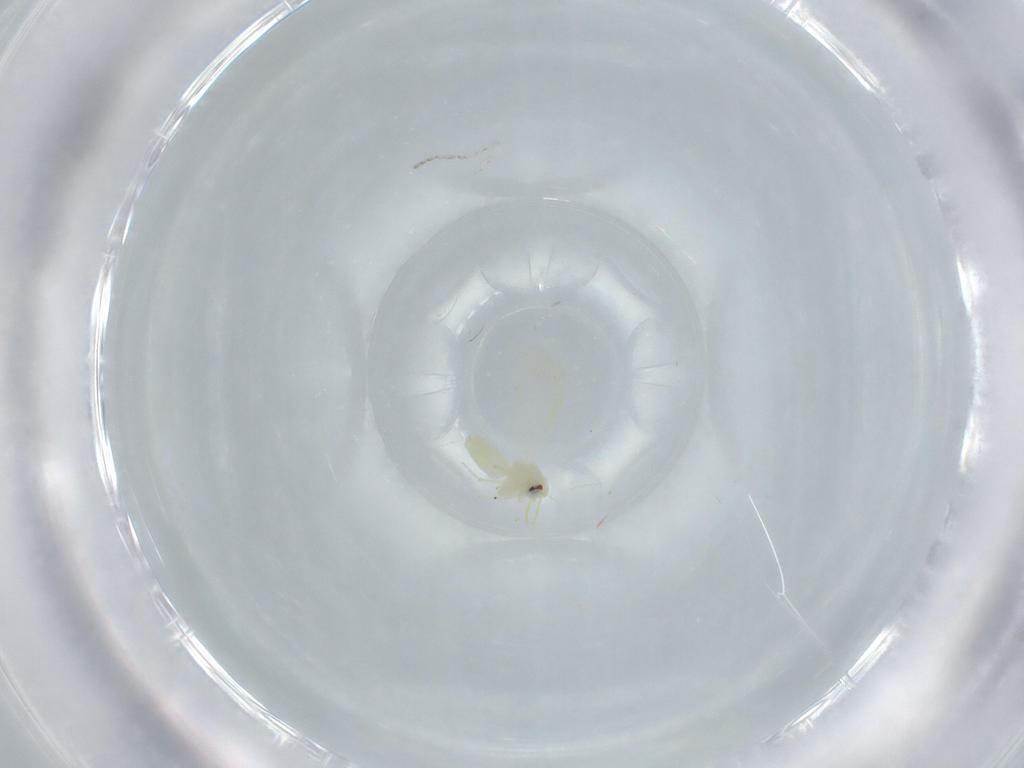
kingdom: Animalia
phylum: Arthropoda
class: Insecta
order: Hemiptera
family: Aleyrodidae
